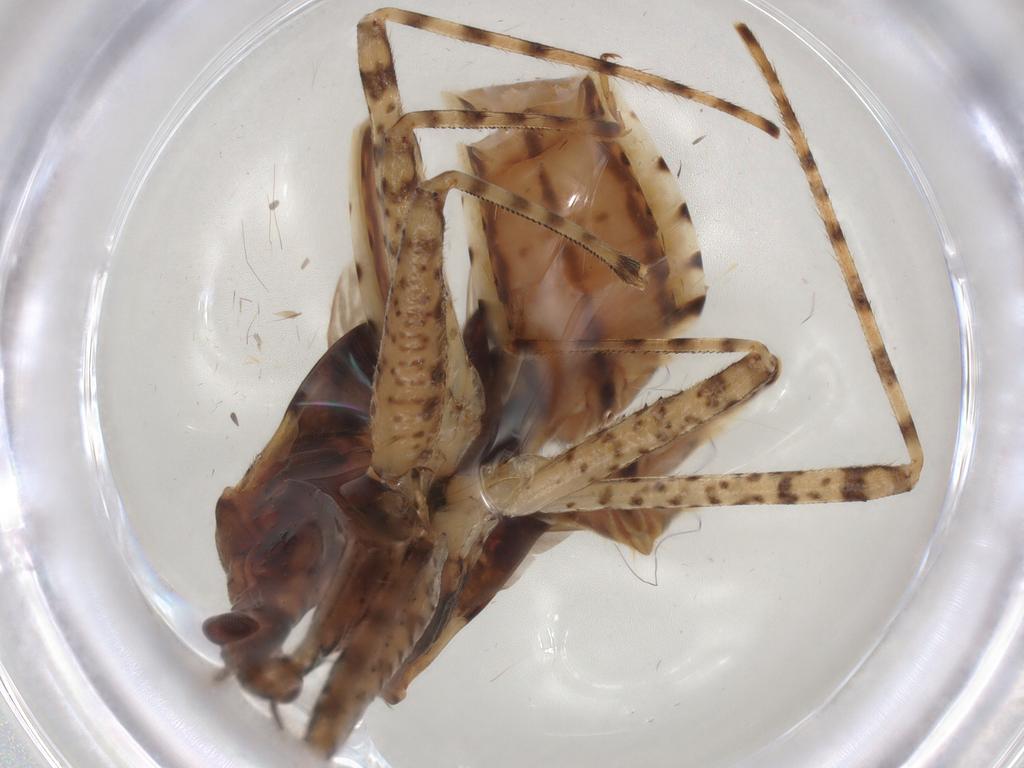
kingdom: Animalia
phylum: Arthropoda
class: Insecta
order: Hemiptera
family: Nabidae
